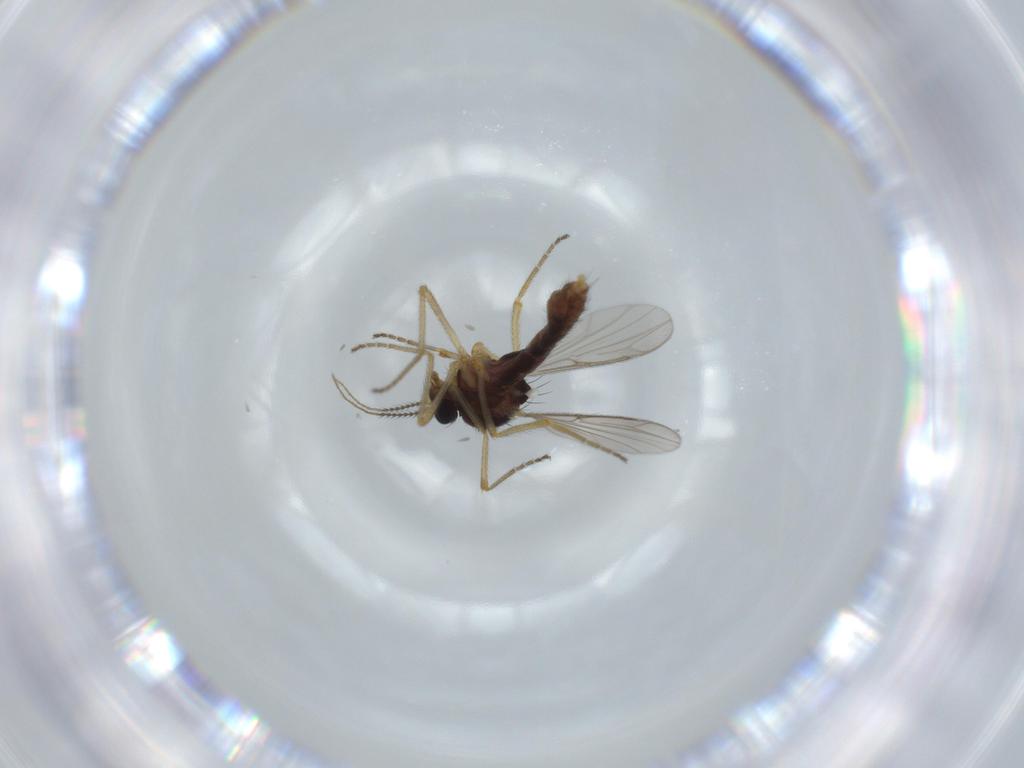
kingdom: Animalia
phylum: Arthropoda
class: Insecta
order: Diptera
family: Ceratopogonidae
